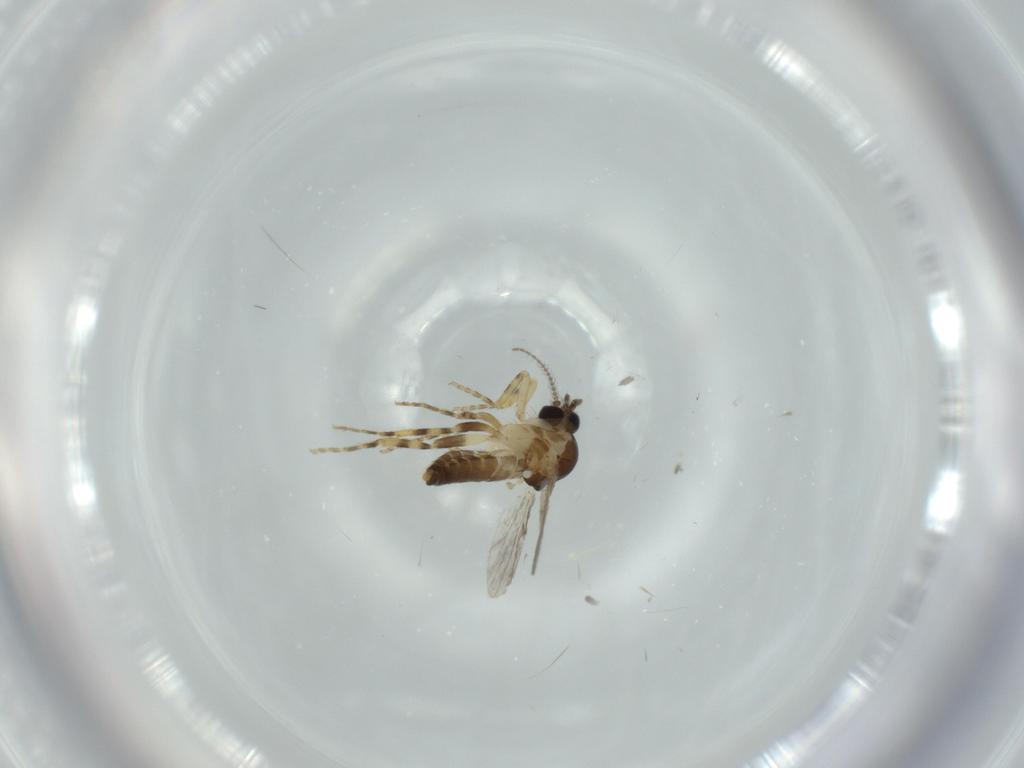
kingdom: Animalia
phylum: Arthropoda
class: Insecta
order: Diptera
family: Ceratopogonidae
